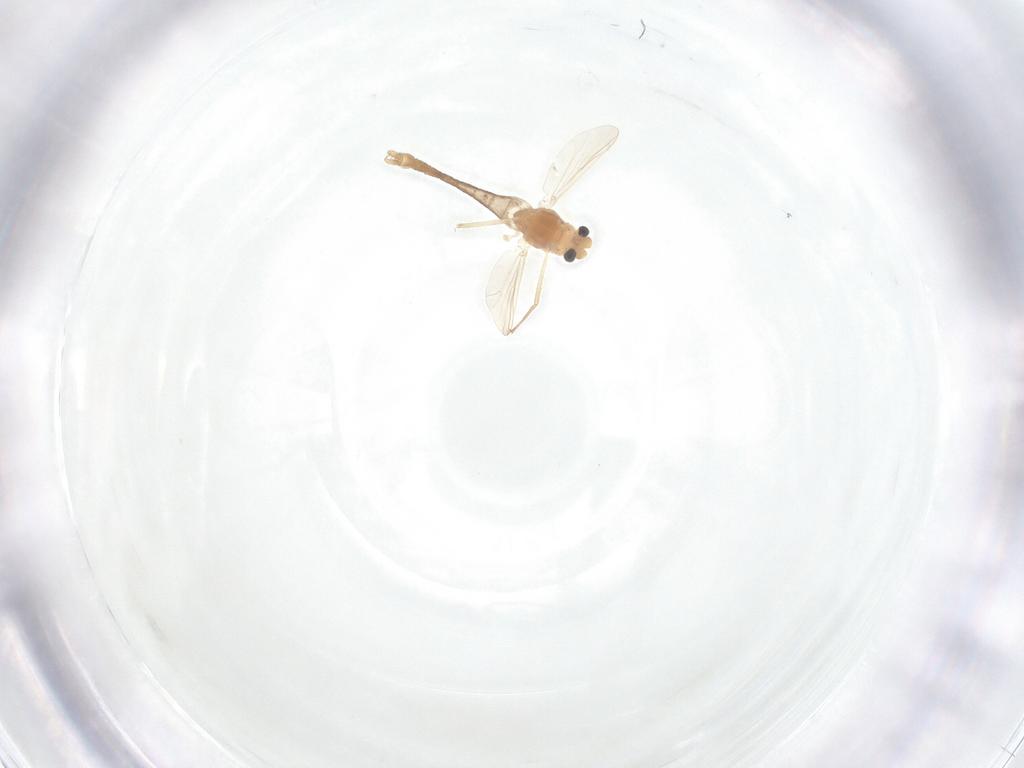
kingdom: Animalia
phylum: Arthropoda
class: Insecta
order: Diptera
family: Chironomidae
